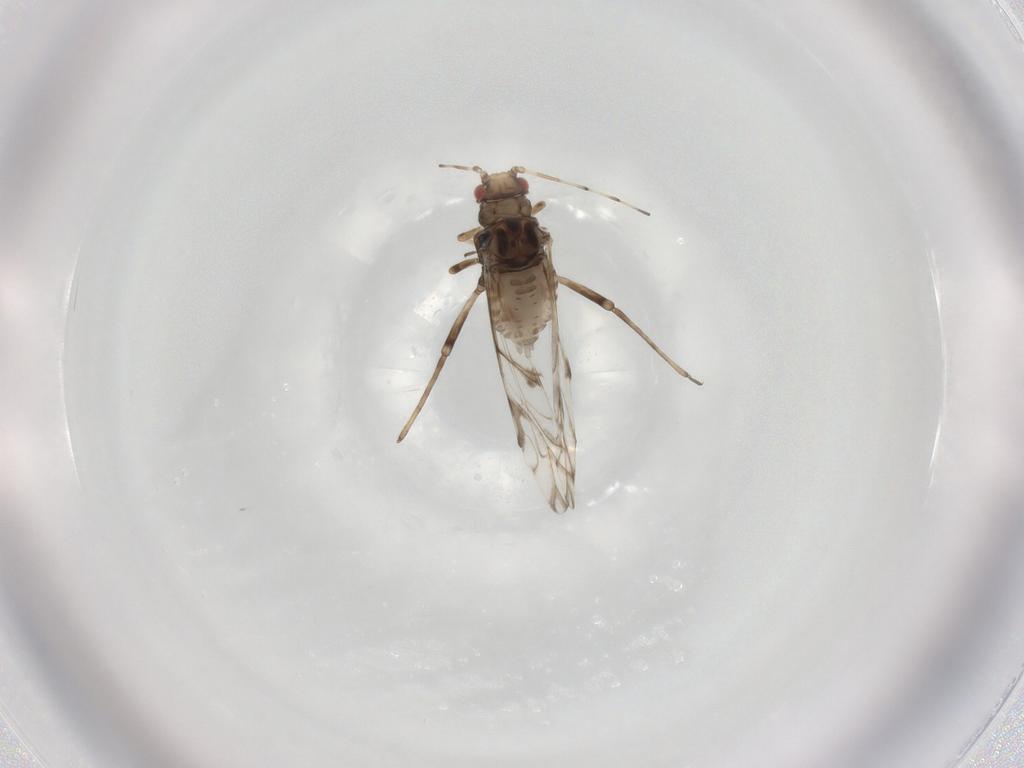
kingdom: Animalia
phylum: Arthropoda
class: Insecta
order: Hemiptera
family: Aphididae
